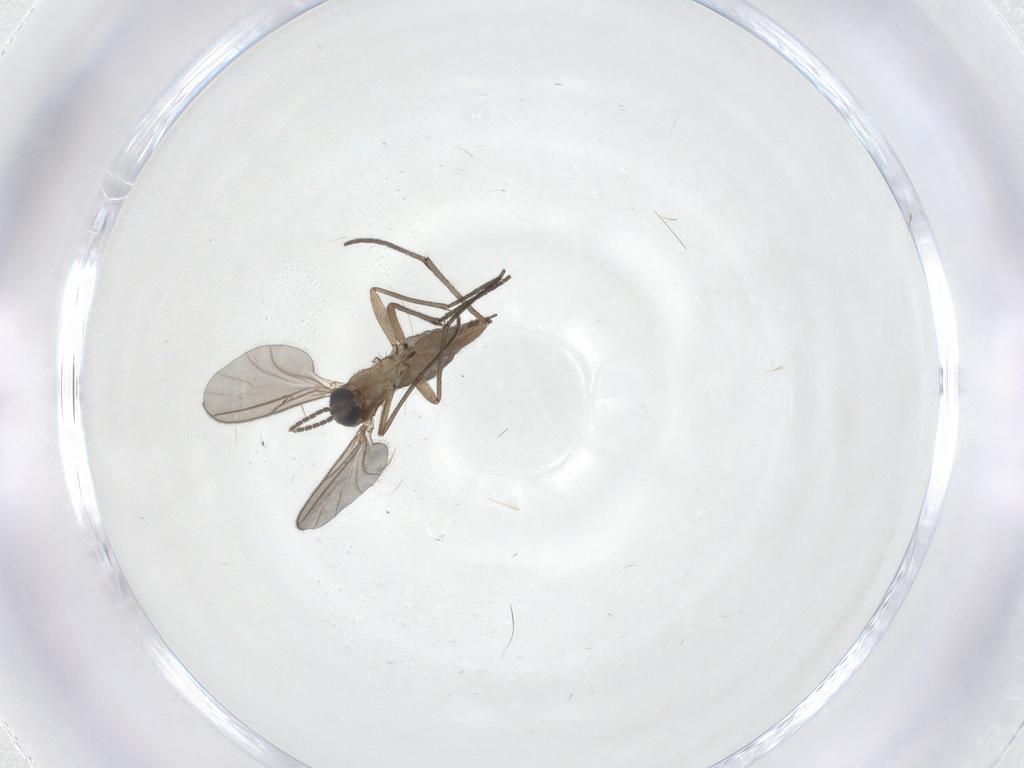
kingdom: Animalia
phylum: Arthropoda
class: Insecta
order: Diptera
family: Sciaridae
